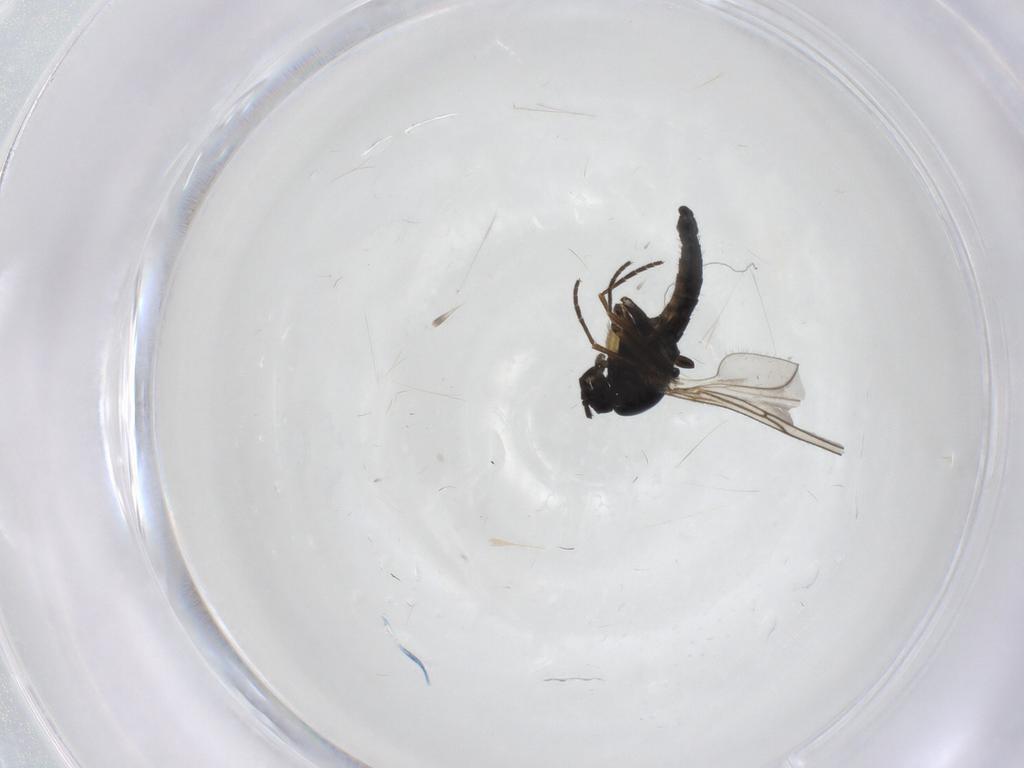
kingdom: Animalia
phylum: Arthropoda
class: Insecta
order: Diptera
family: Sciaridae
